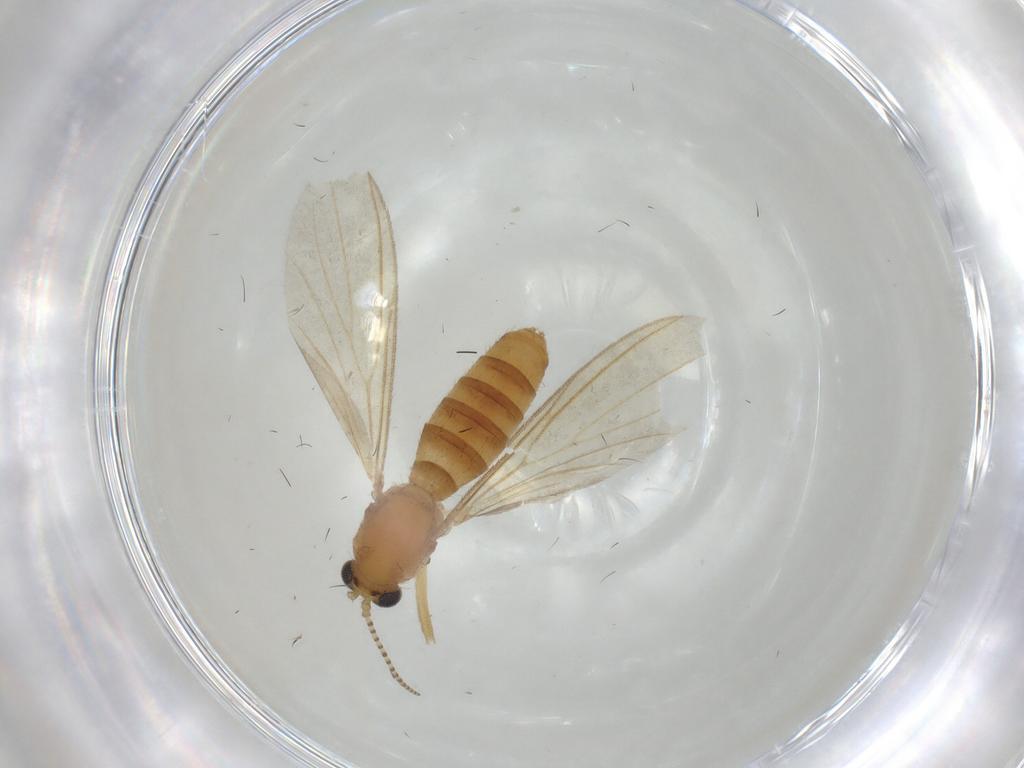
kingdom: Animalia
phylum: Arthropoda
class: Insecta
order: Diptera
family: Mycetophilidae
